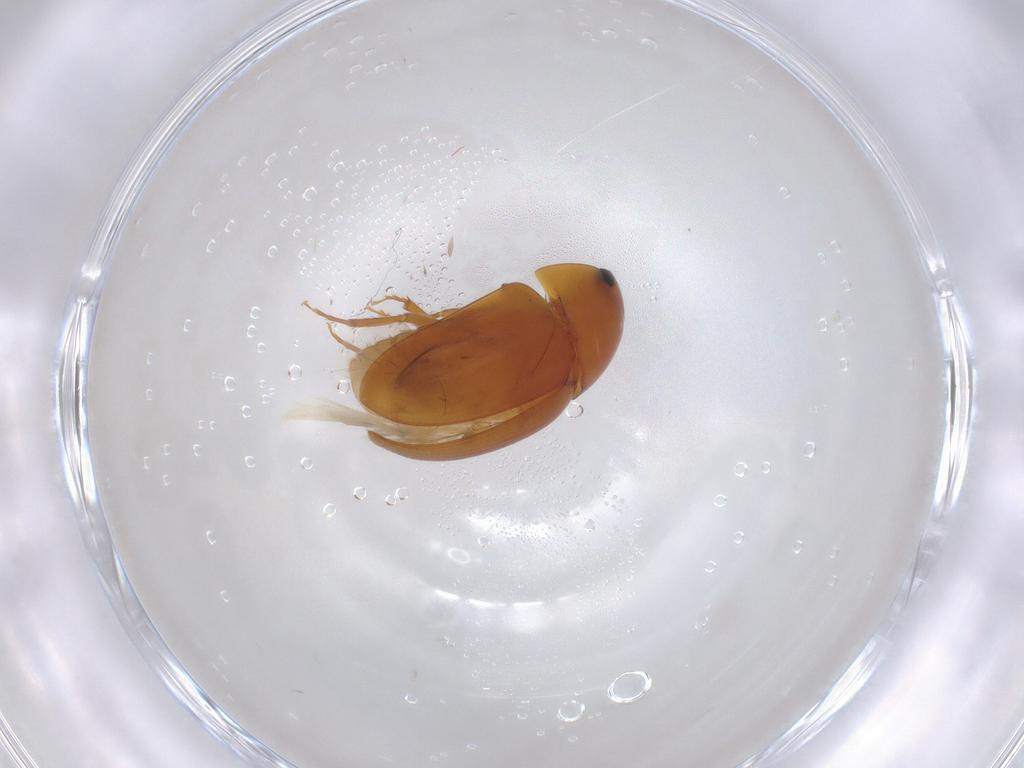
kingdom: Animalia
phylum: Arthropoda
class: Insecta
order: Coleoptera
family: Phalacridae
